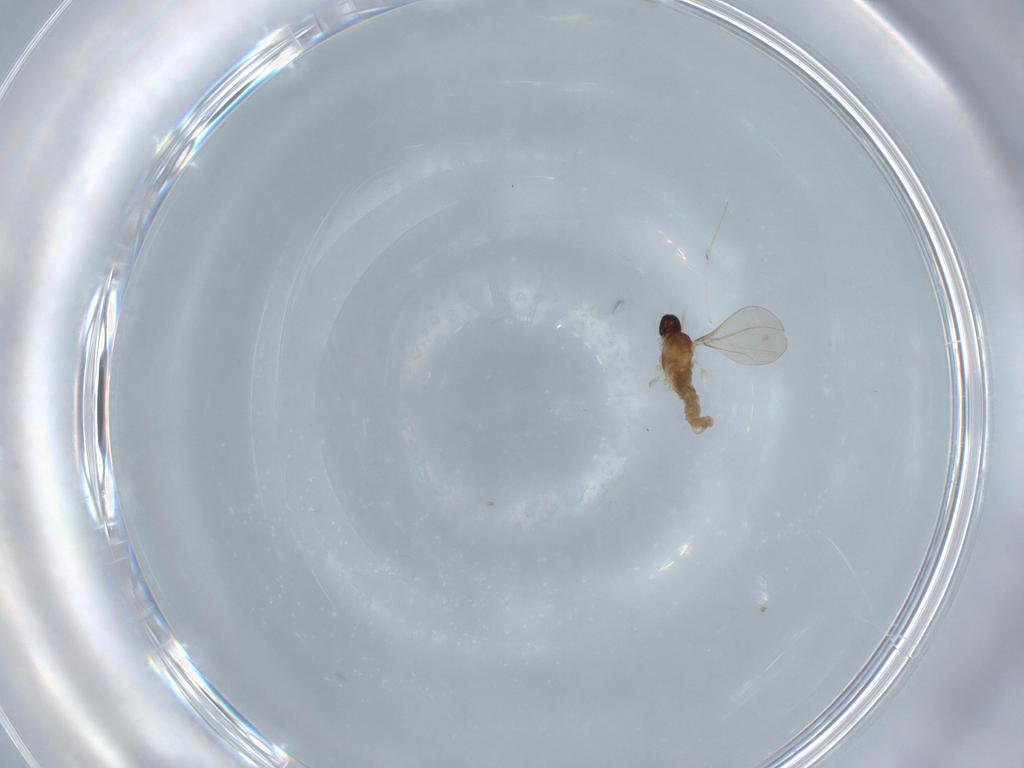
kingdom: Animalia
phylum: Arthropoda
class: Insecta
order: Diptera
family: Cecidomyiidae
